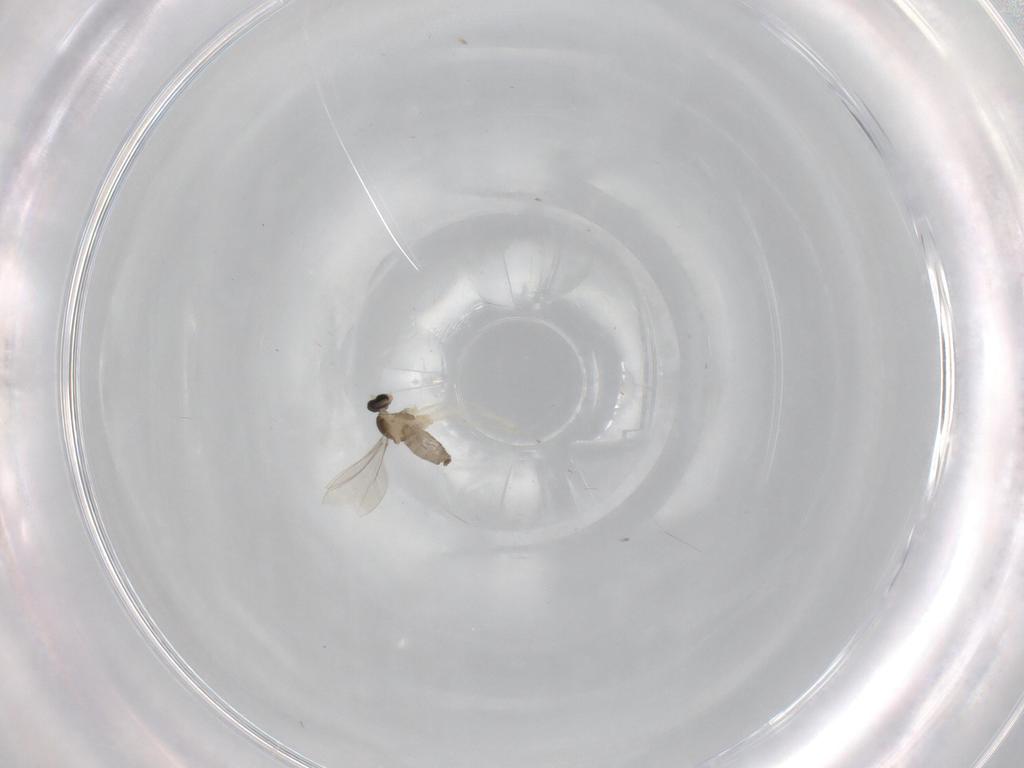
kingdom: Animalia
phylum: Arthropoda
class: Insecta
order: Diptera
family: Cecidomyiidae
